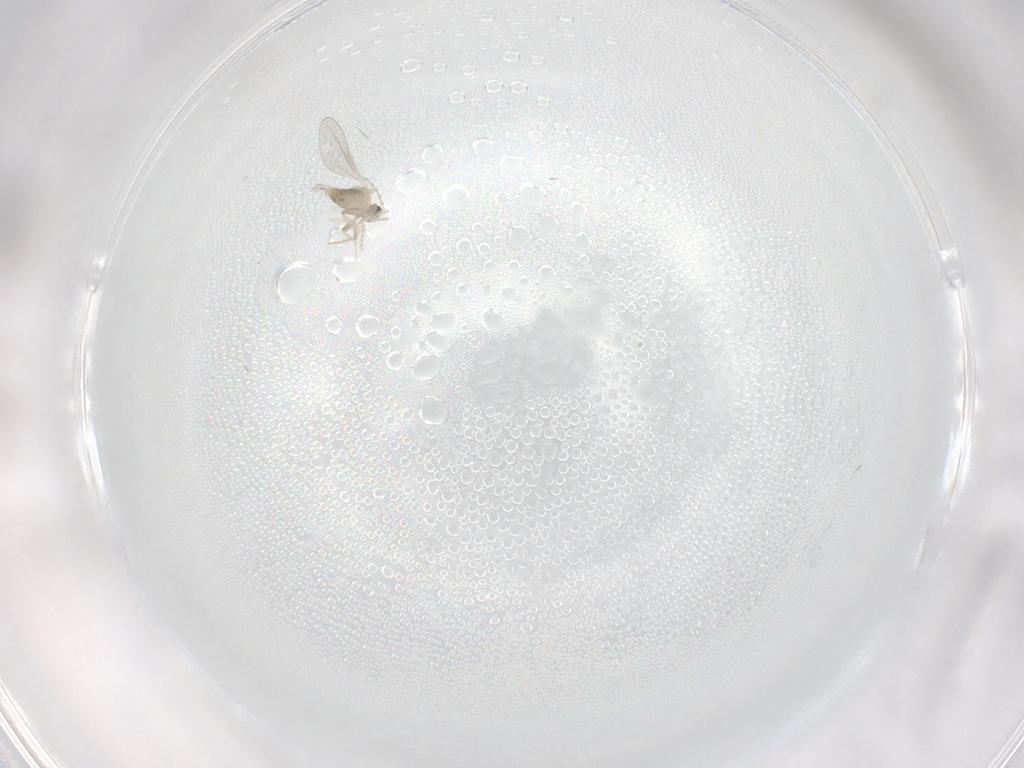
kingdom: Animalia
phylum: Arthropoda
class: Insecta
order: Diptera
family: Cecidomyiidae
